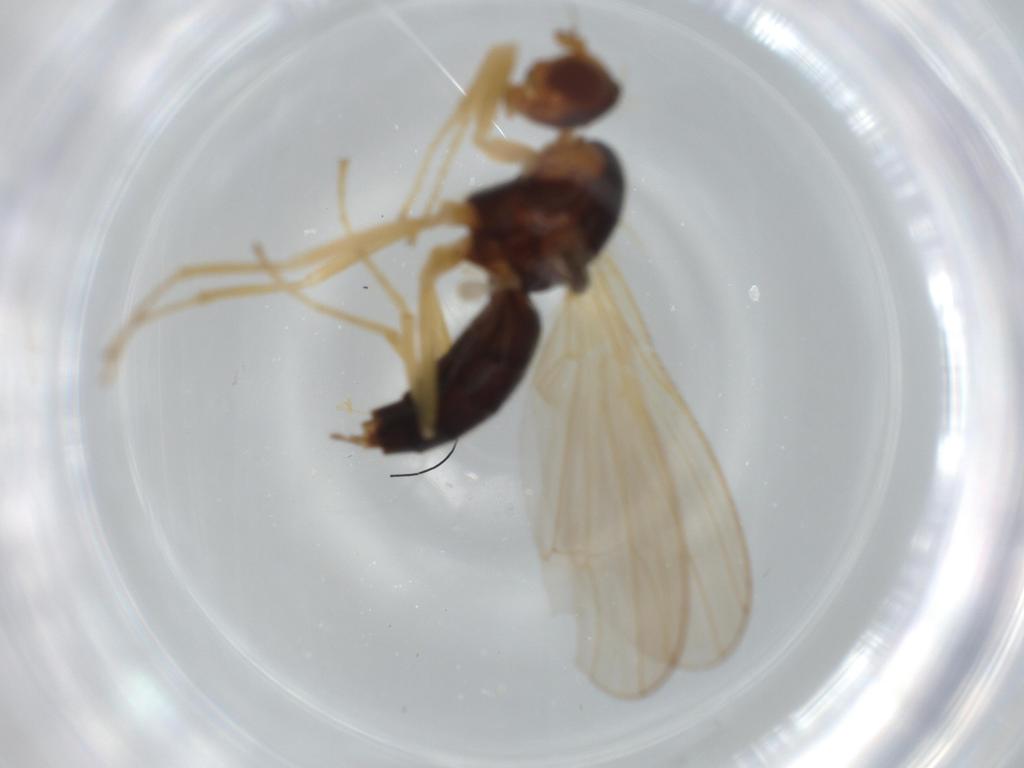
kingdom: Animalia
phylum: Arthropoda
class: Insecta
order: Diptera
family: Psilidae
